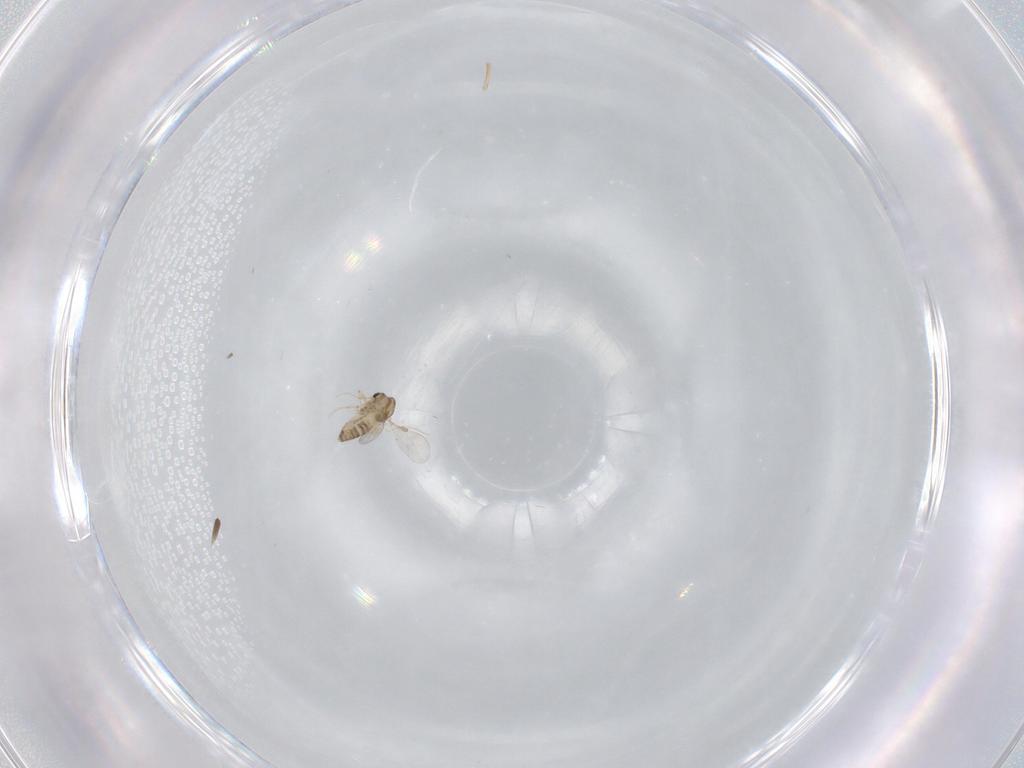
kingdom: Animalia
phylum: Arthropoda
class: Insecta
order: Diptera
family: Chironomidae
